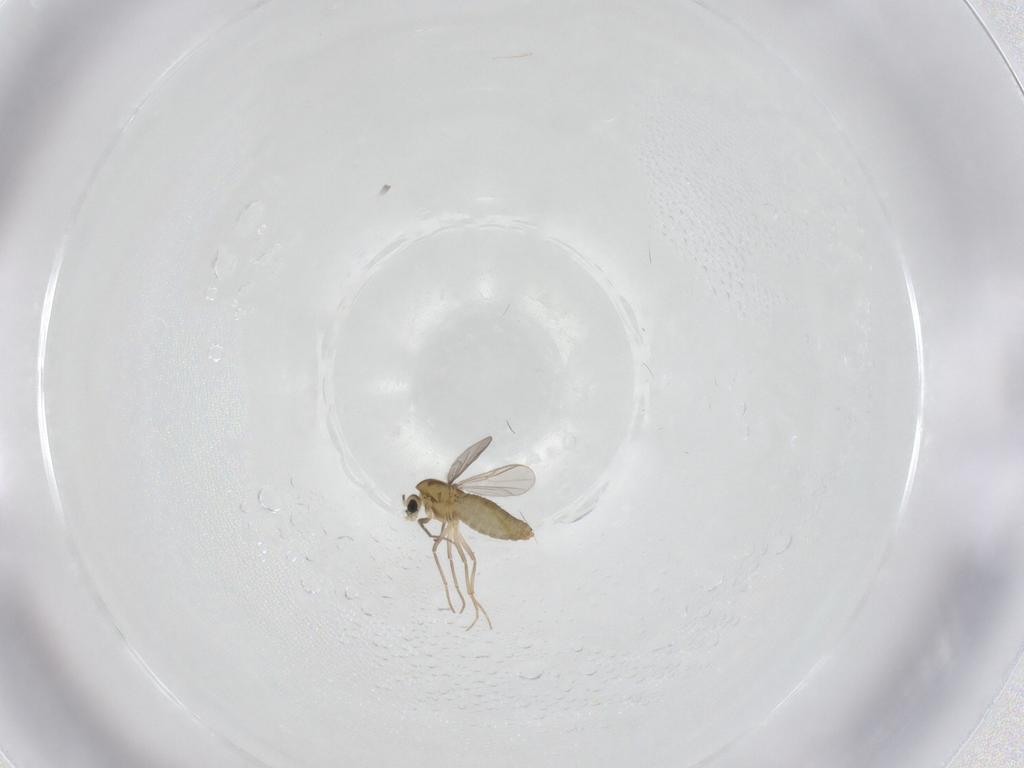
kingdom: Animalia
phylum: Arthropoda
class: Insecta
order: Diptera
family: Chironomidae
